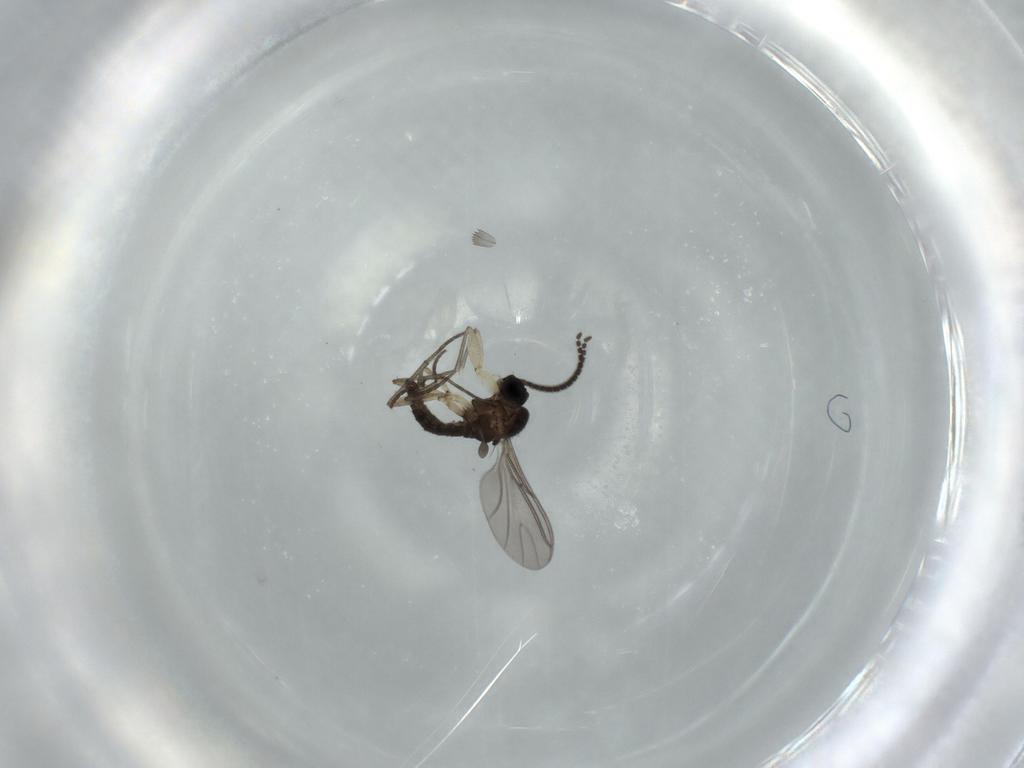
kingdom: Animalia
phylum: Arthropoda
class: Insecta
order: Diptera
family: Sciaridae
